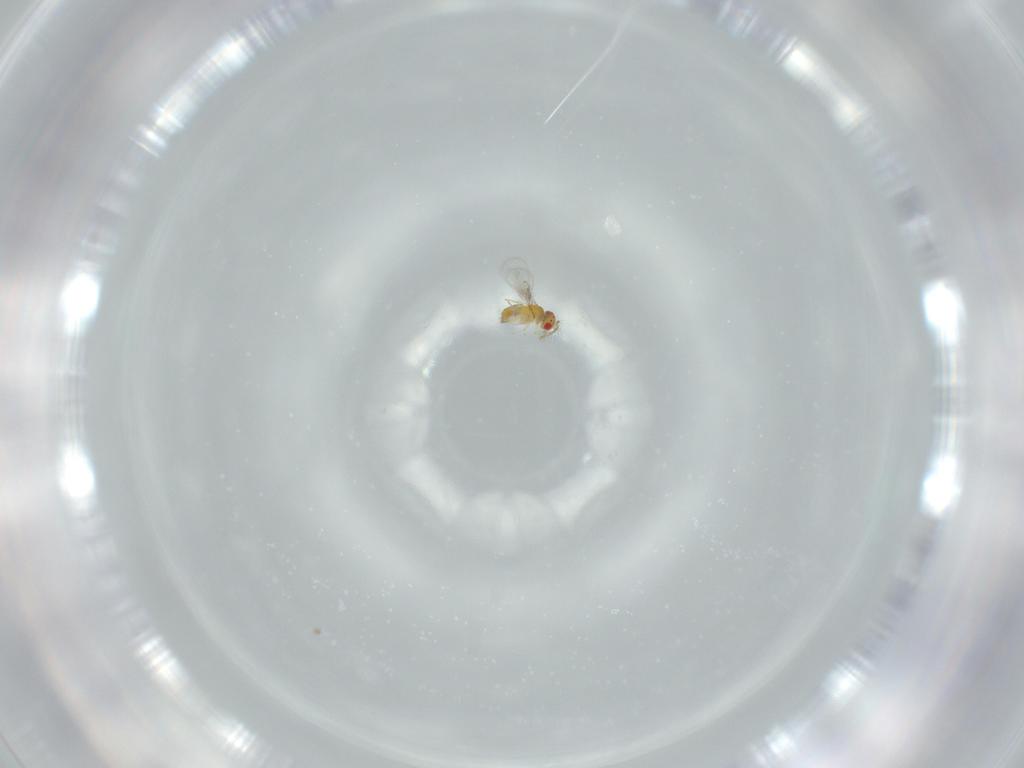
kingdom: Animalia
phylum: Arthropoda
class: Insecta
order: Hymenoptera
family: Trichogrammatidae
